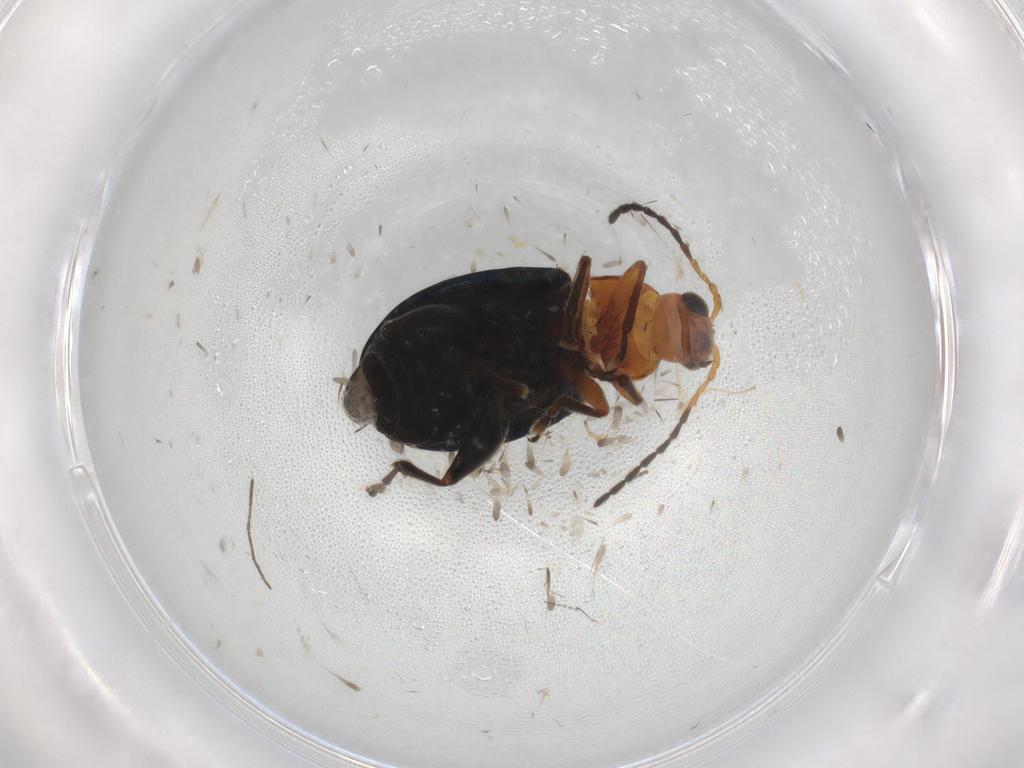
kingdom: Animalia
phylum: Arthropoda
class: Insecta
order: Coleoptera
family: Chrysomelidae
